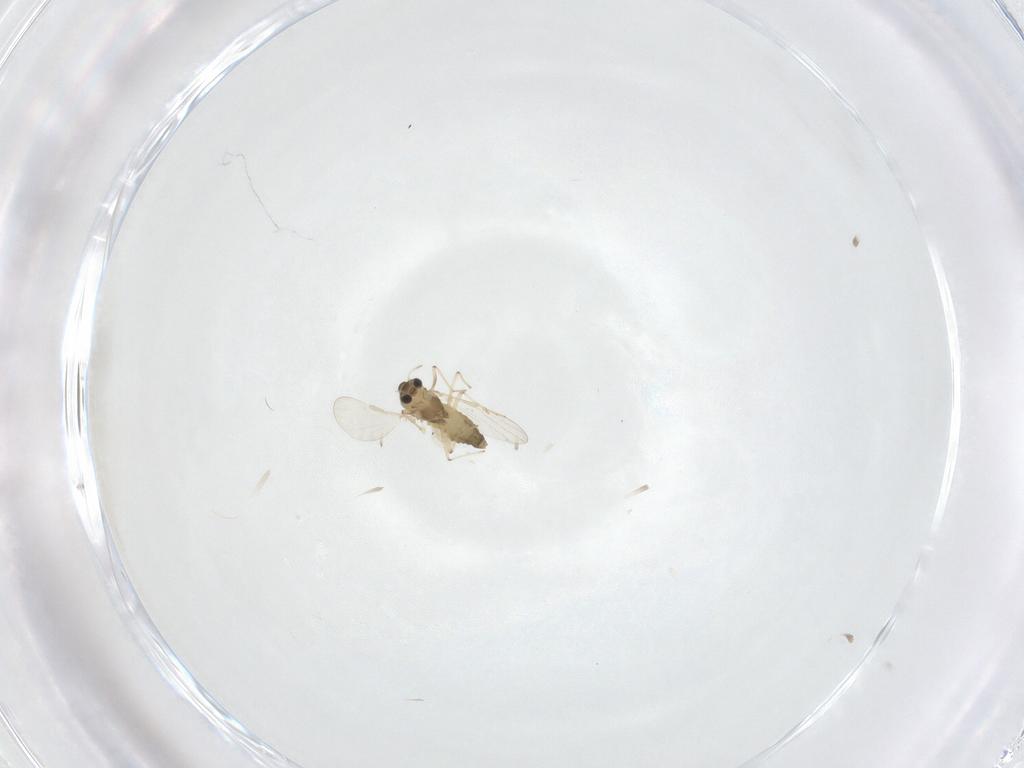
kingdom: Animalia
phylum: Arthropoda
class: Insecta
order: Diptera
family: Chironomidae
